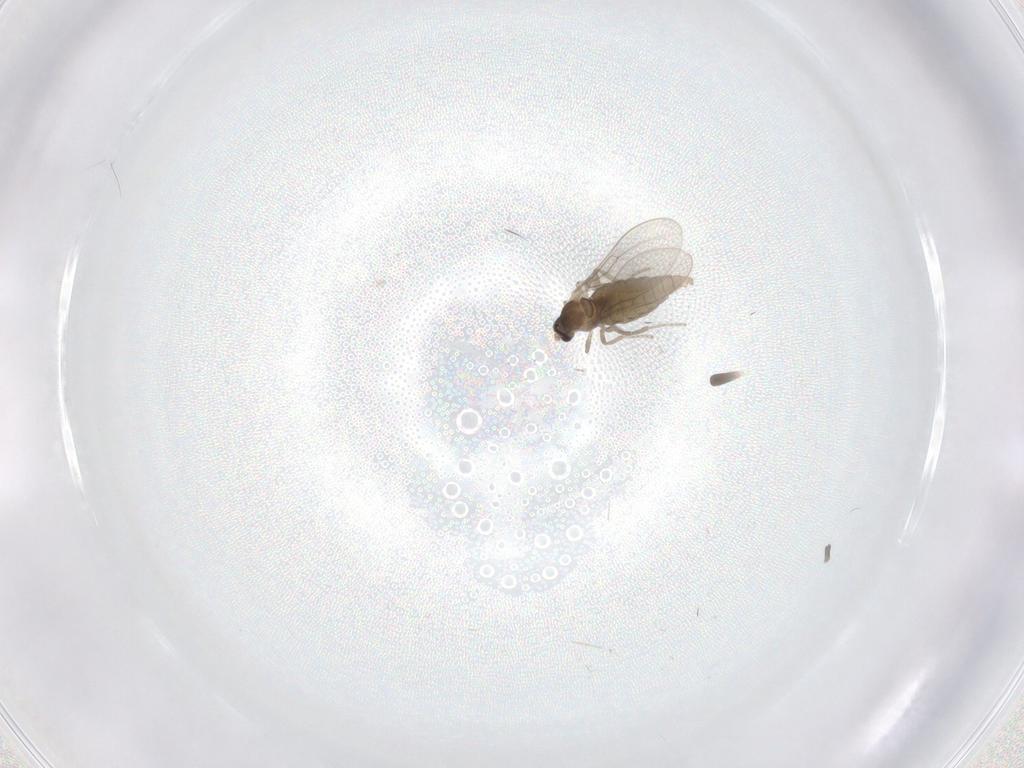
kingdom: Animalia
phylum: Arthropoda
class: Insecta
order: Diptera
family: Cecidomyiidae
